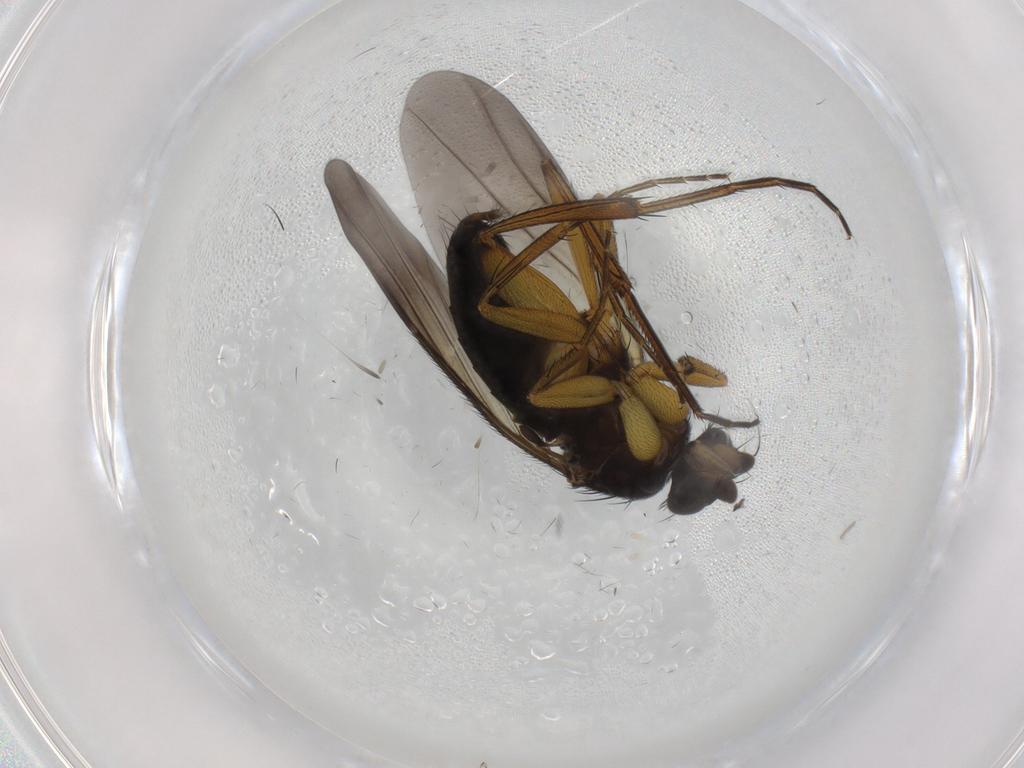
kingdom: Animalia
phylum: Arthropoda
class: Insecta
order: Diptera
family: Phoridae
